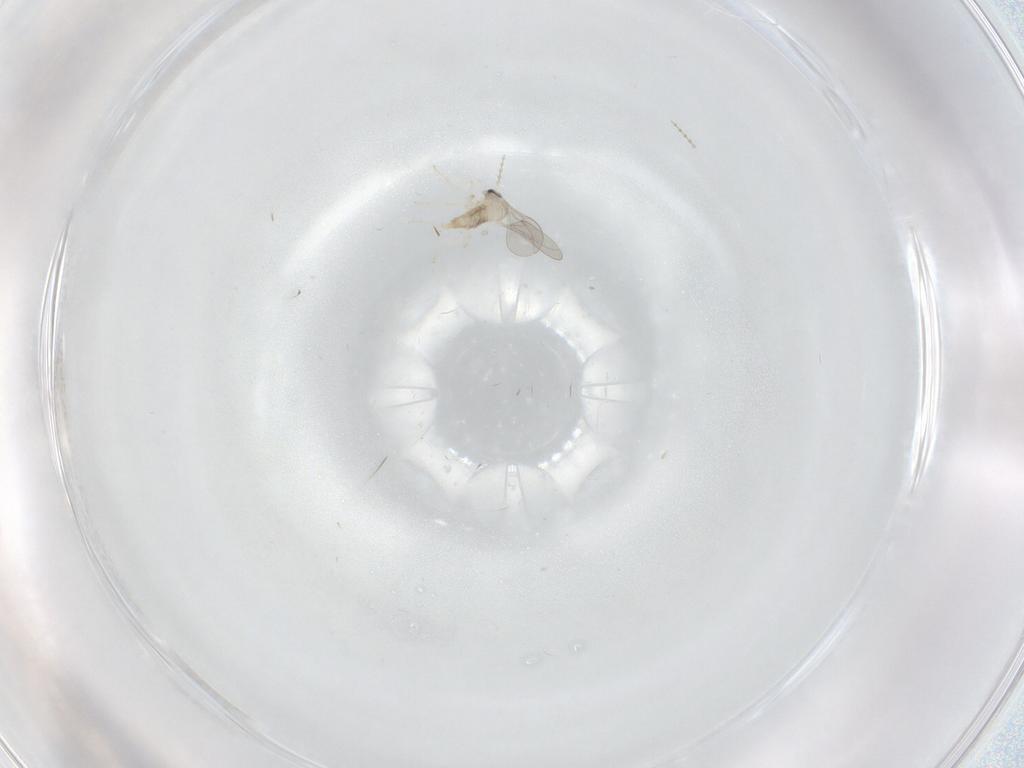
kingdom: Animalia
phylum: Arthropoda
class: Insecta
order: Diptera
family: Cecidomyiidae
